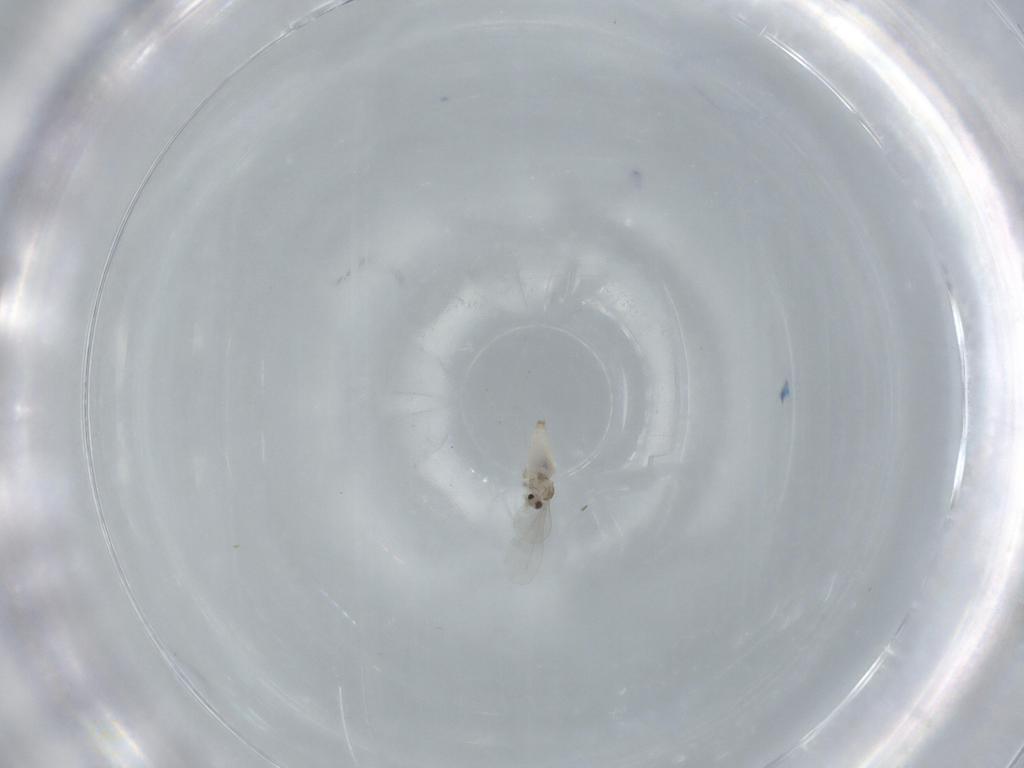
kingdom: Animalia
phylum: Arthropoda
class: Insecta
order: Diptera
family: Cecidomyiidae
